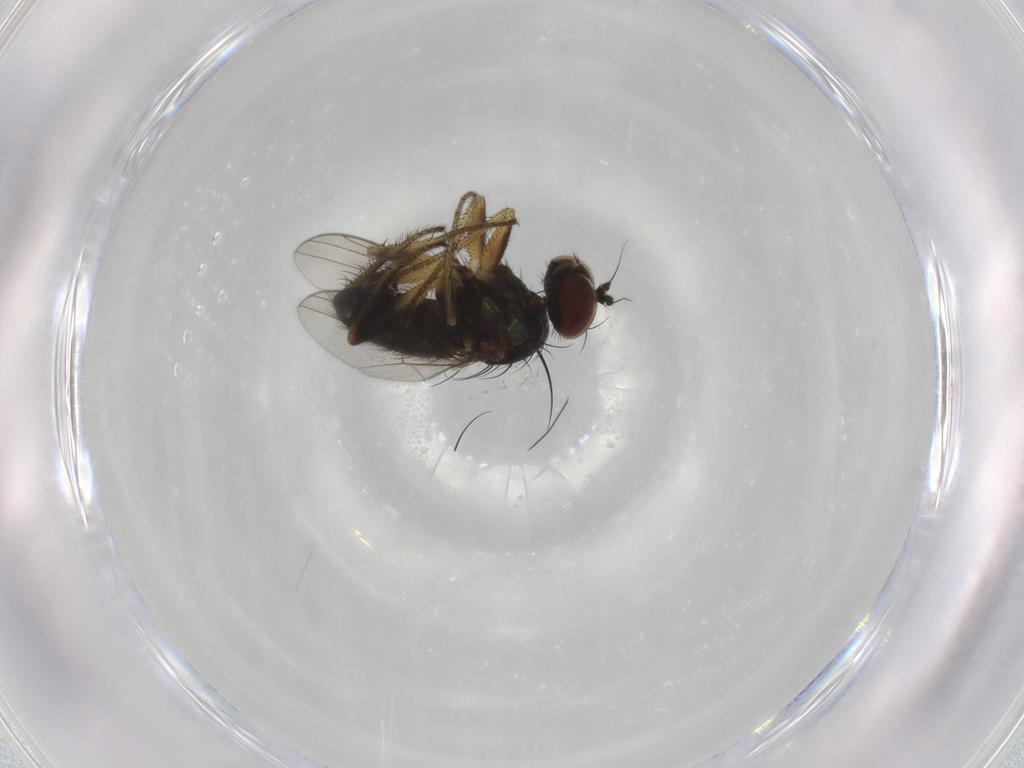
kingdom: Animalia
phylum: Arthropoda
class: Insecta
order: Diptera
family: Dolichopodidae
